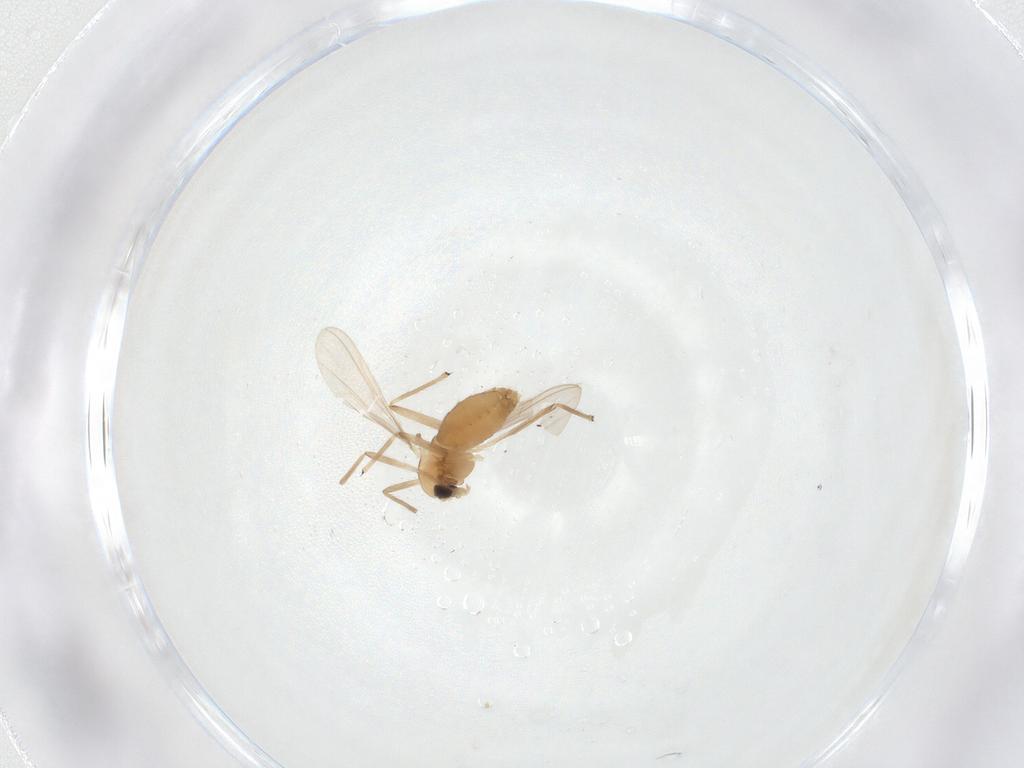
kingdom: Animalia
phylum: Arthropoda
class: Insecta
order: Diptera
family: Chironomidae
